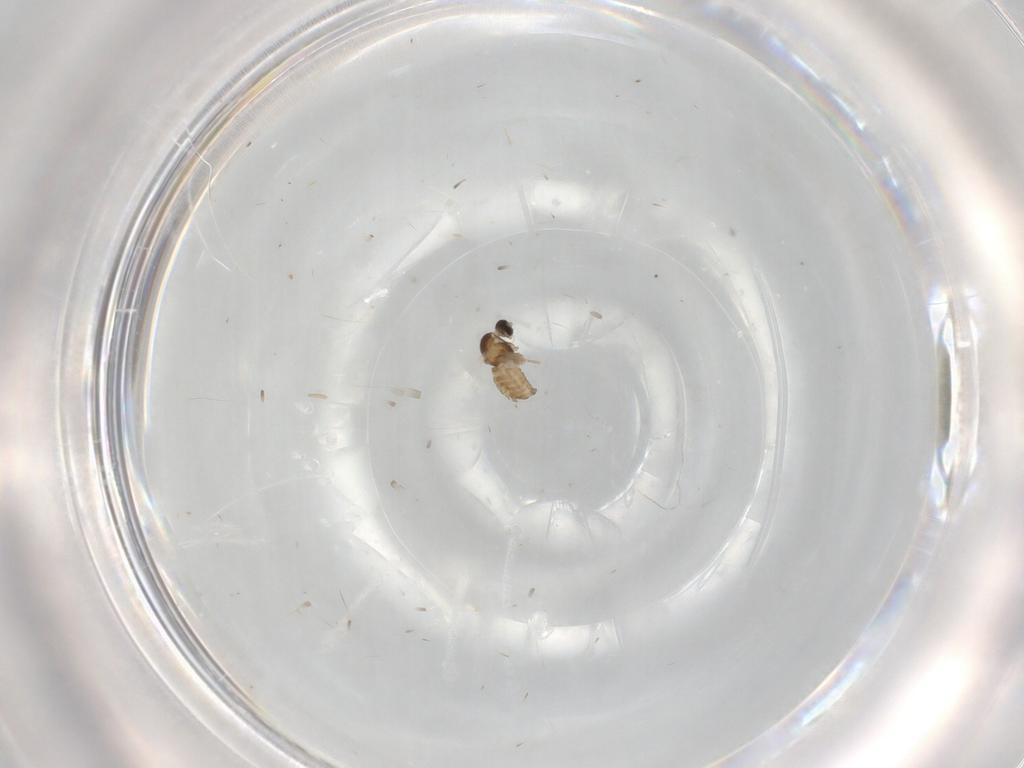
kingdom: Animalia
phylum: Arthropoda
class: Insecta
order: Diptera
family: Cecidomyiidae
